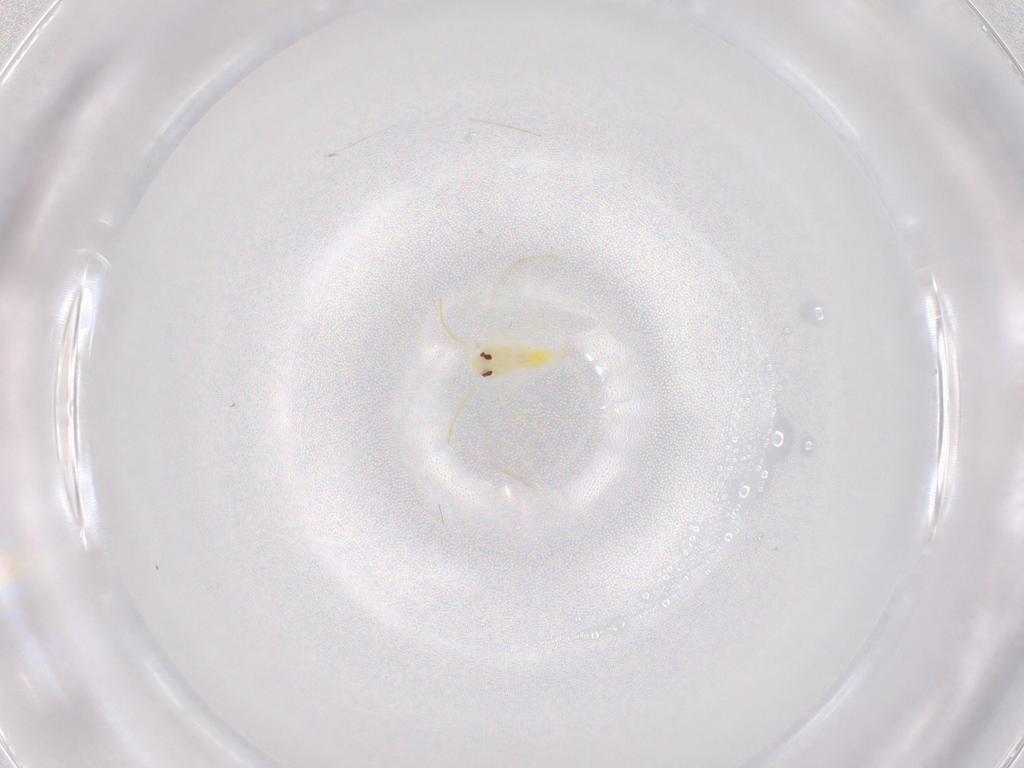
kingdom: Animalia
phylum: Arthropoda
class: Insecta
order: Hemiptera
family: Aleyrodidae
